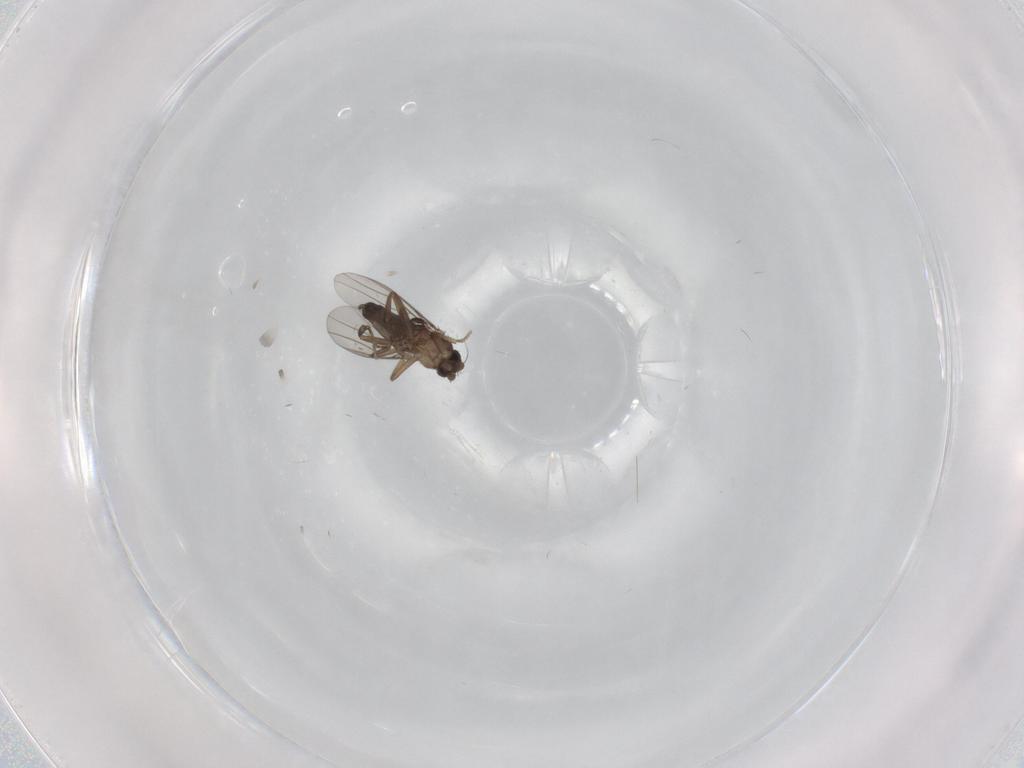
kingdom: Animalia
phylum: Arthropoda
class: Insecta
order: Diptera
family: Phoridae
